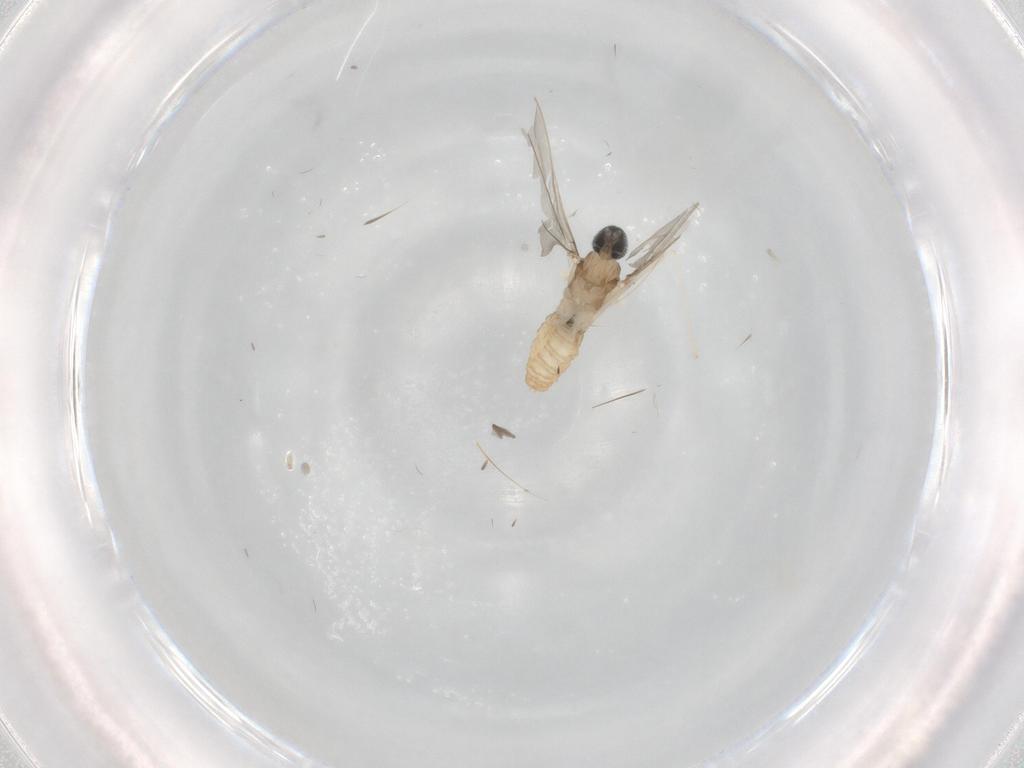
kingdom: Animalia
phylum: Arthropoda
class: Insecta
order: Diptera
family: Cecidomyiidae
